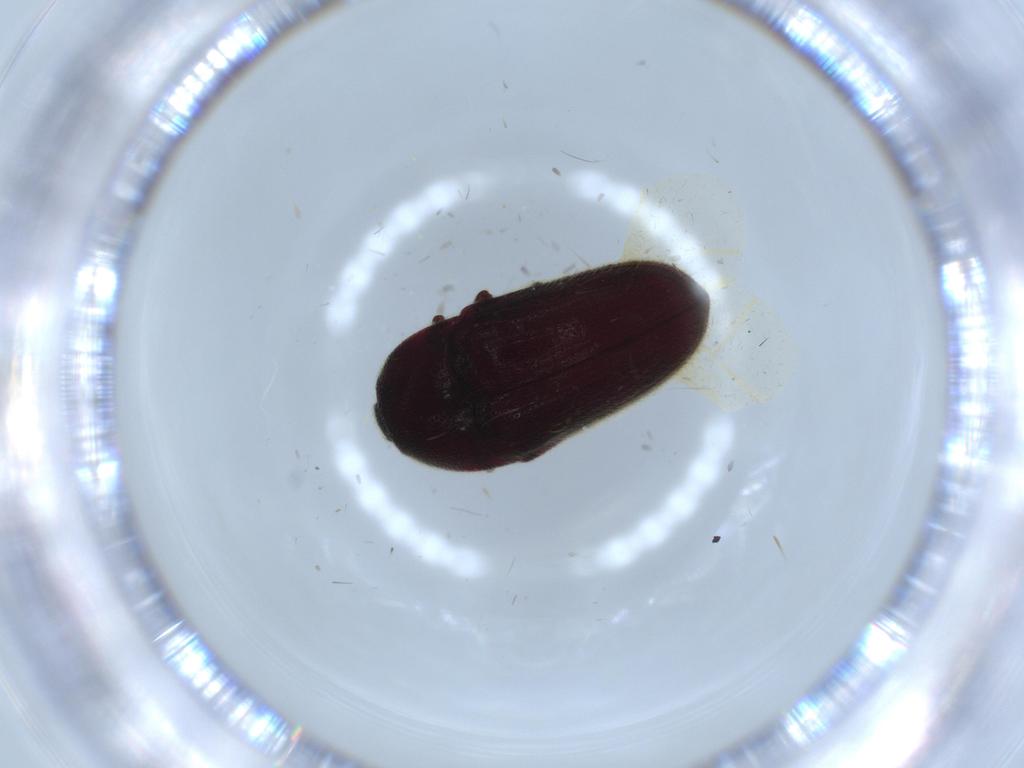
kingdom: Animalia
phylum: Arthropoda
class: Insecta
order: Coleoptera
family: Throscidae
